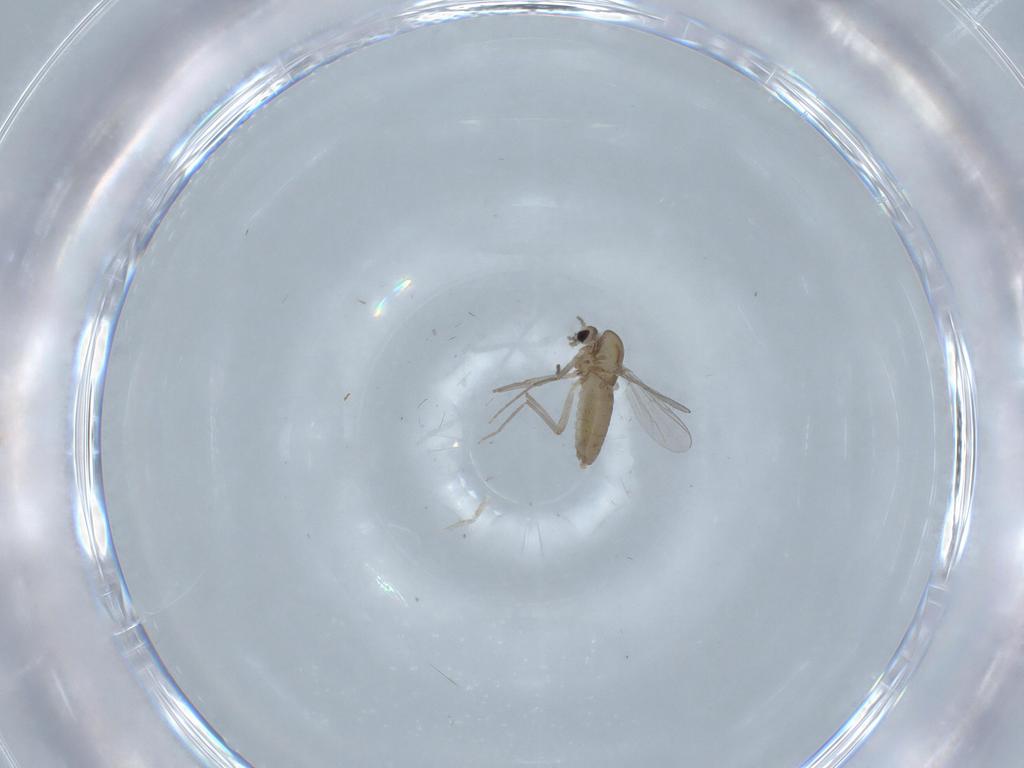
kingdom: Animalia
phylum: Arthropoda
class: Insecta
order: Diptera
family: Chironomidae
